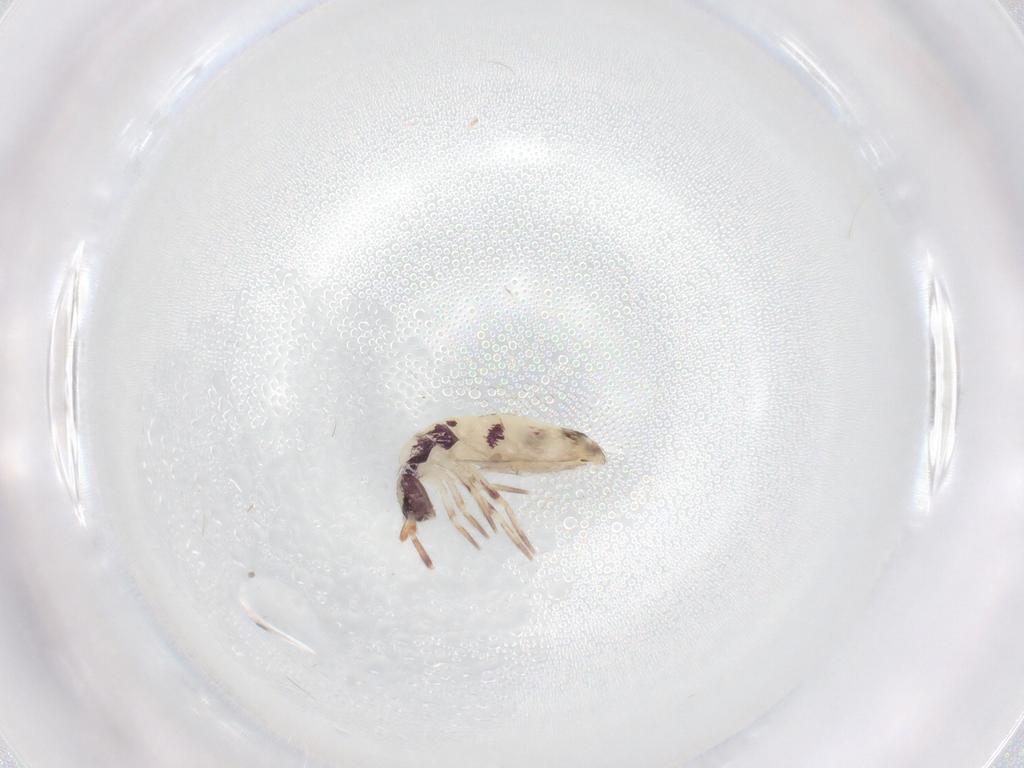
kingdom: Animalia
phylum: Arthropoda
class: Collembola
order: Entomobryomorpha
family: Entomobryidae
